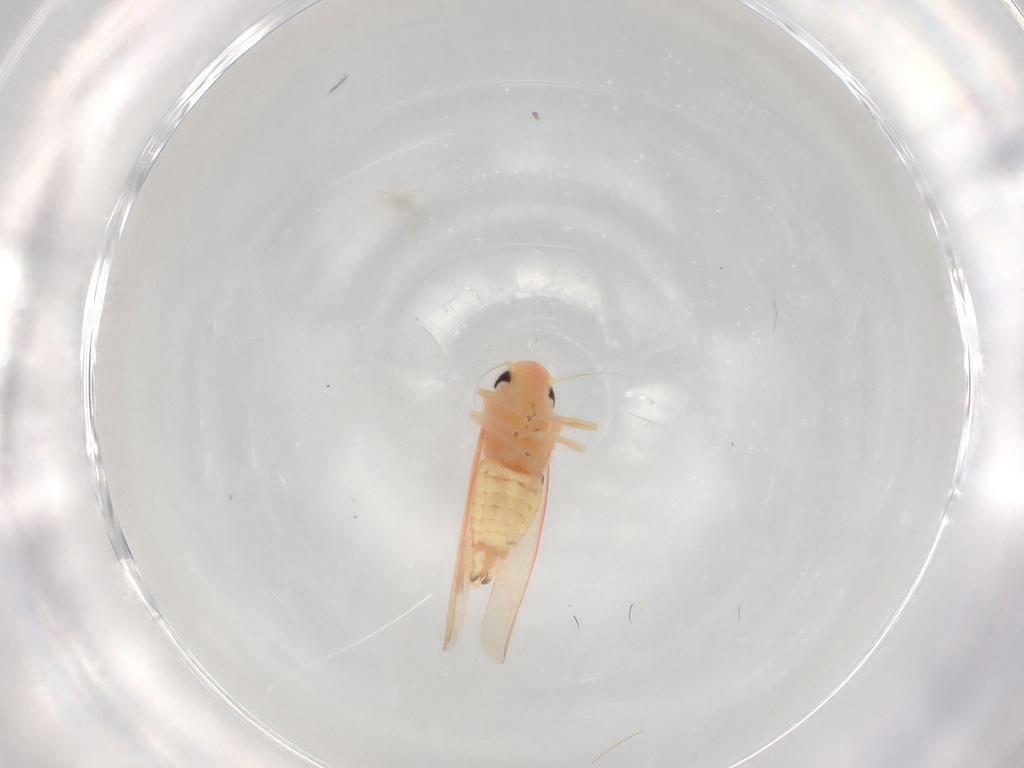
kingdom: Animalia
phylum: Arthropoda
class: Insecta
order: Hemiptera
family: Cicadellidae
